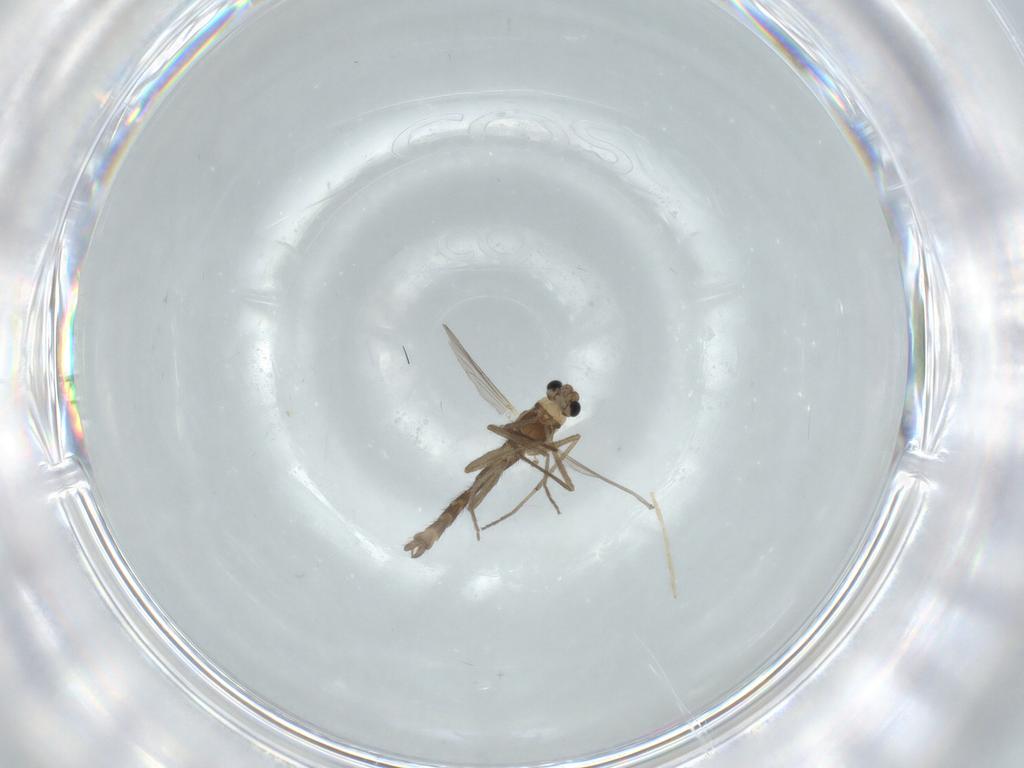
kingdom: Animalia
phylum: Arthropoda
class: Insecta
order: Diptera
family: Chironomidae
